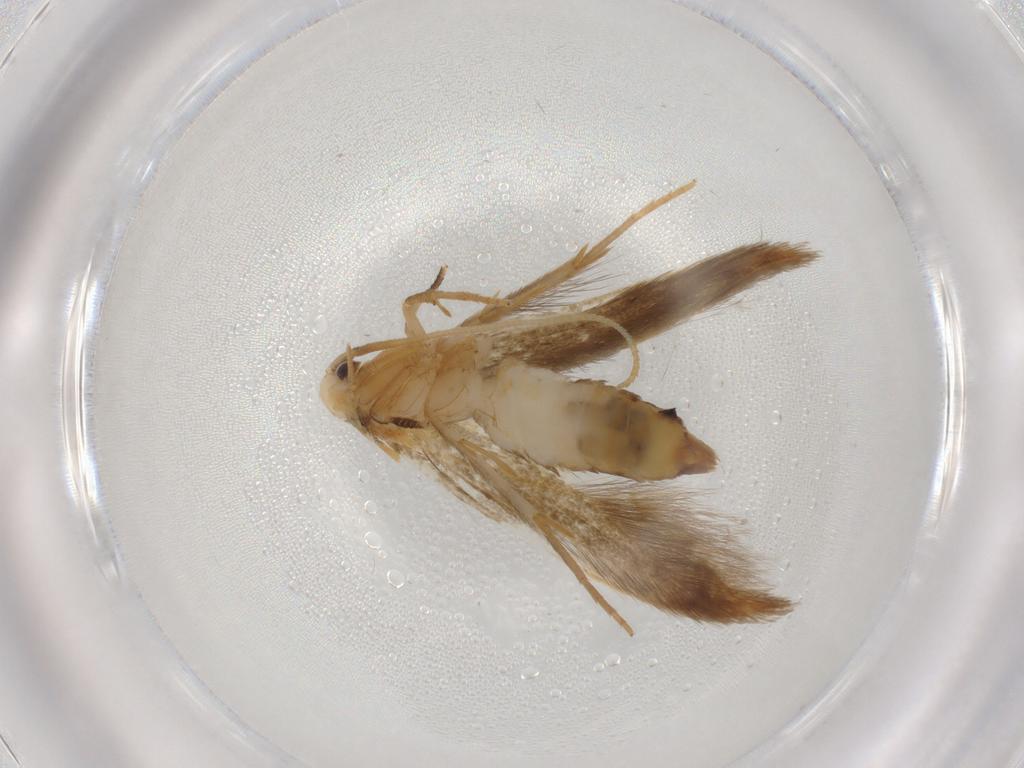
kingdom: Animalia
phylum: Arthropoda
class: Insecta
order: Lepidoptera
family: Tineidae
